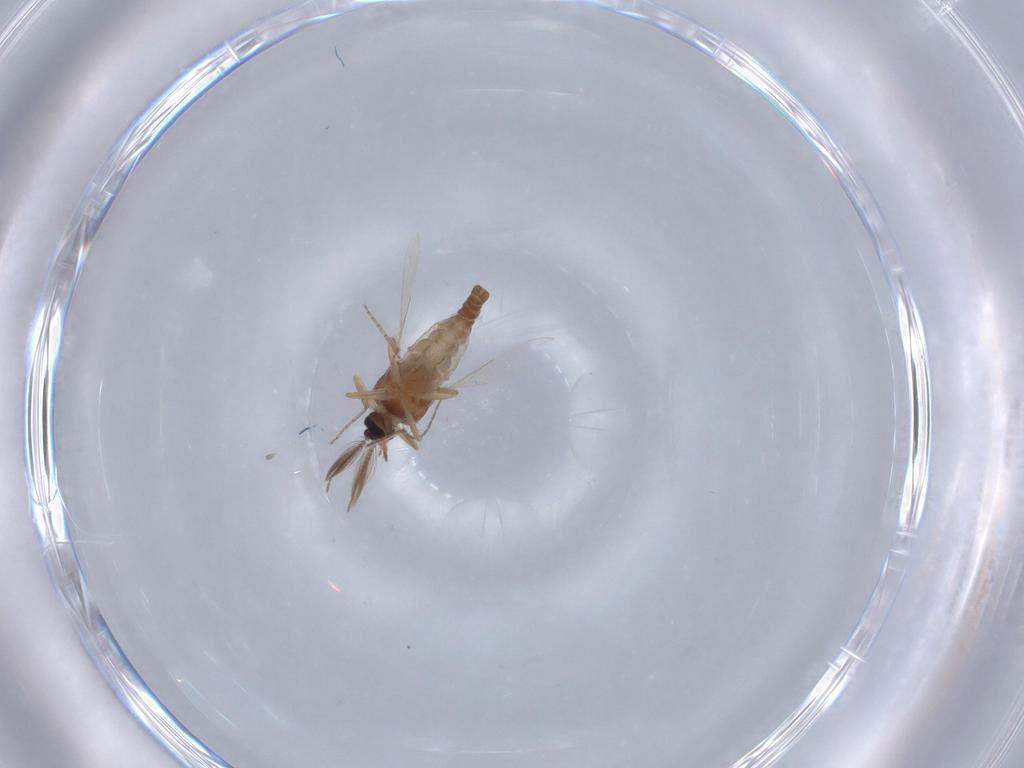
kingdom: Animalia
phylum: Arthropoda
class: Insecta
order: Diptera
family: Ceratopogonidae
